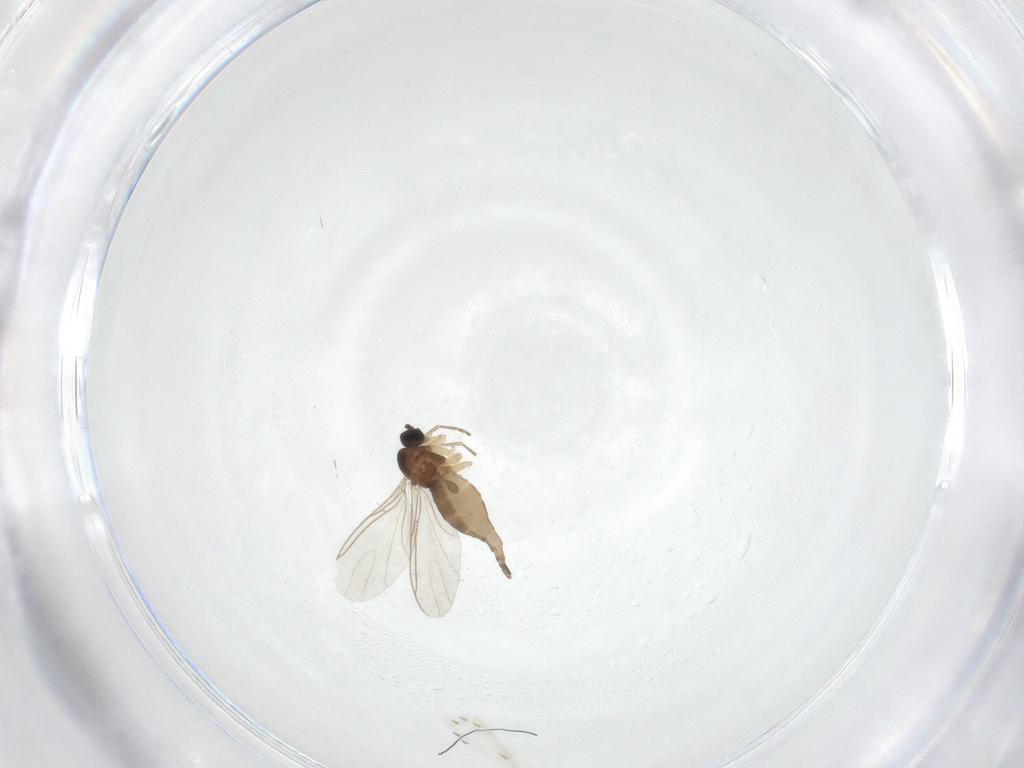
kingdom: Animalia
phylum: Arthropoda
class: Insecta
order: Diptera
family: Sciaridae
